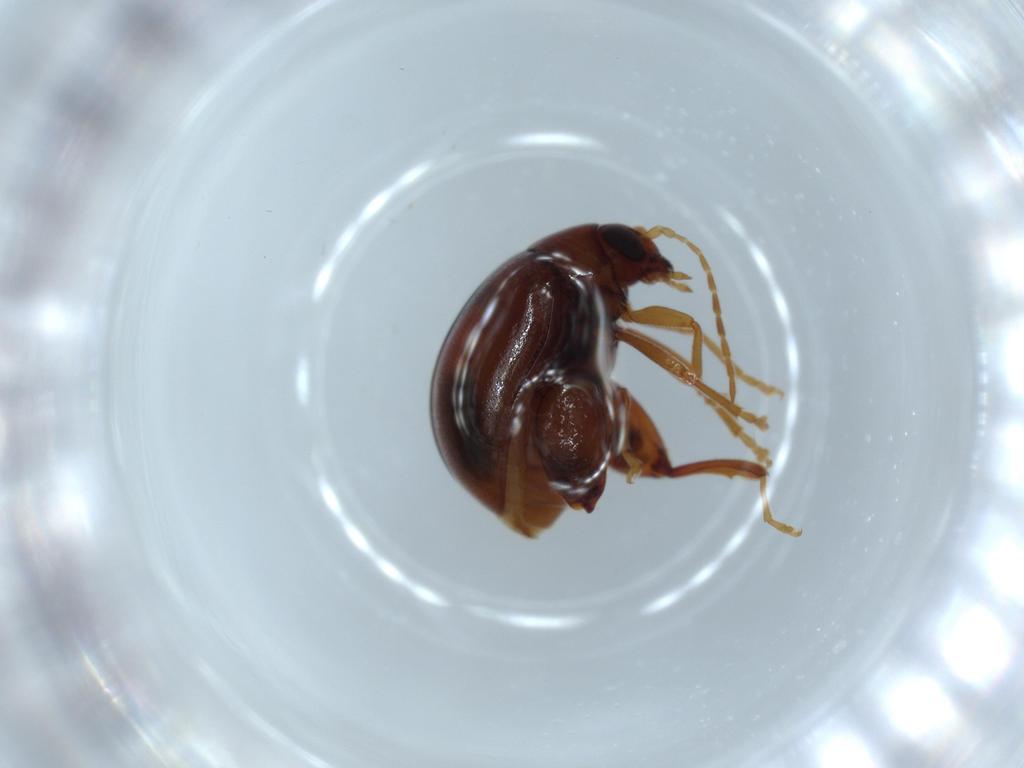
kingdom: Animalia
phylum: Arthropoda
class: Insecta
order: Coleoptera
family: Chrysomelidae
